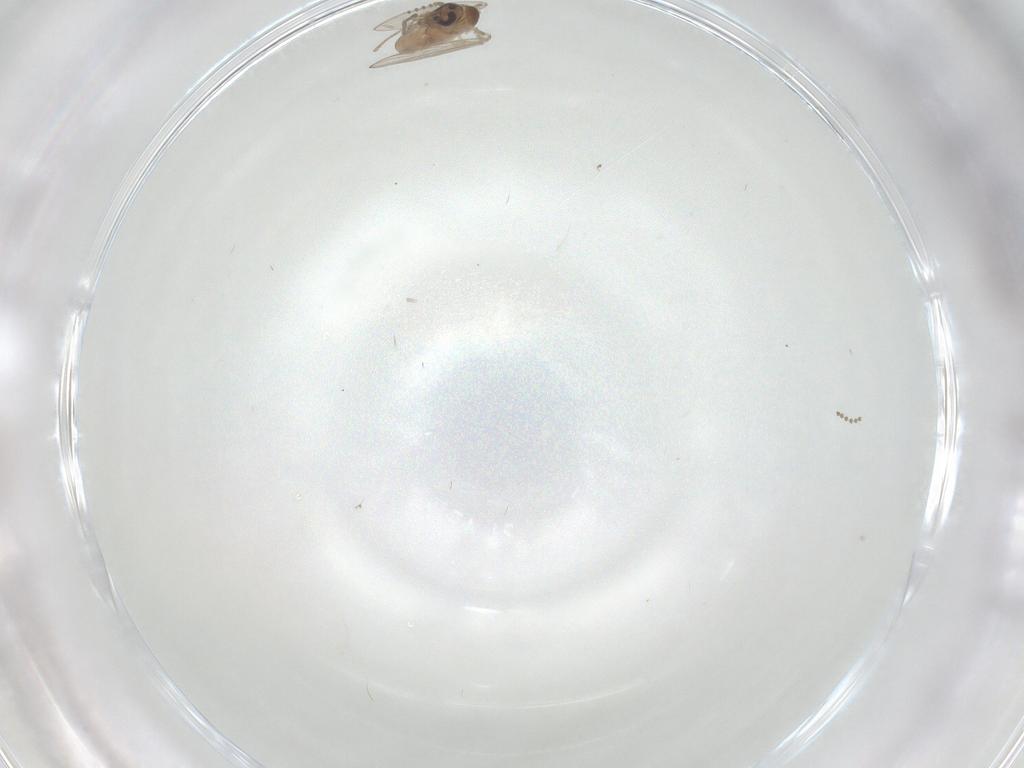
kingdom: Animalia
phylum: Arthropoda
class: Insecta
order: Diptera
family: Psychodidae
